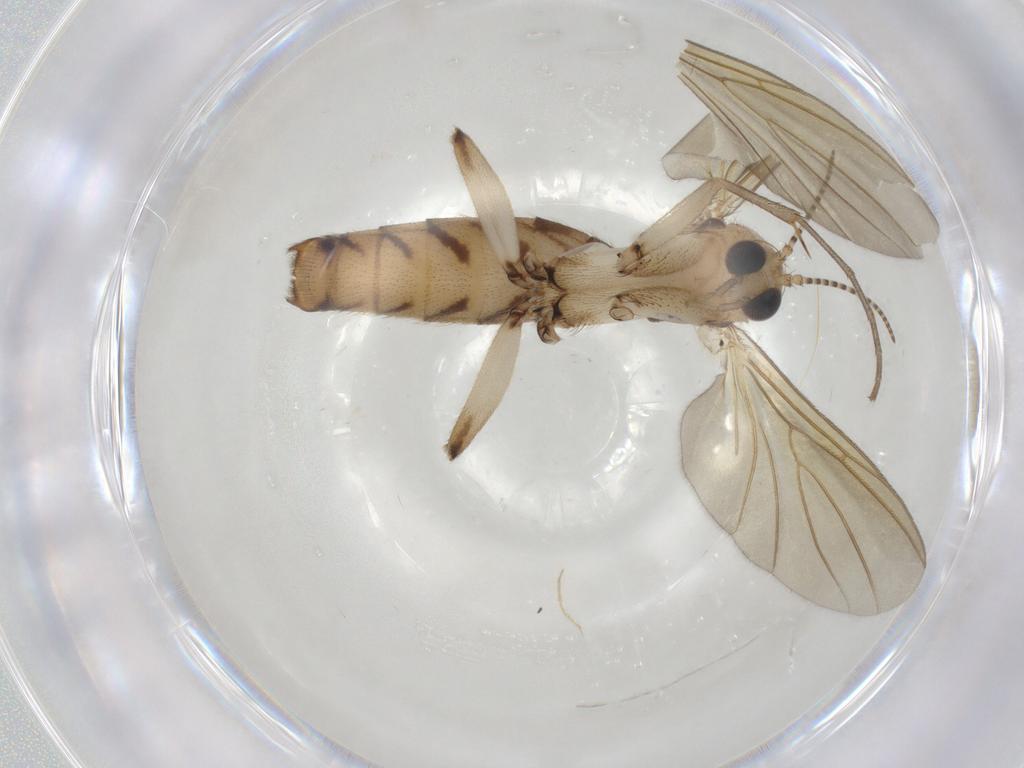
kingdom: Animalia
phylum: Arthropoda
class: Insecta
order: Diptera
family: Mycetophilidae
